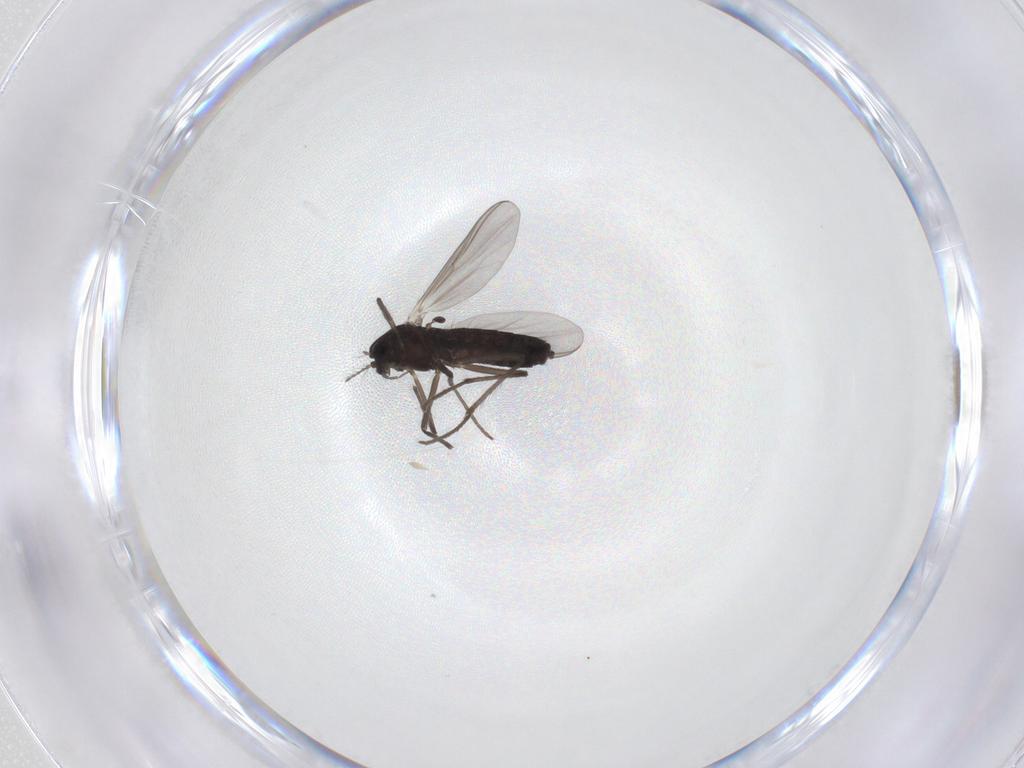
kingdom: Animalia
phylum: Arthropoda
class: Insecta
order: Diptera
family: Chironomidae
